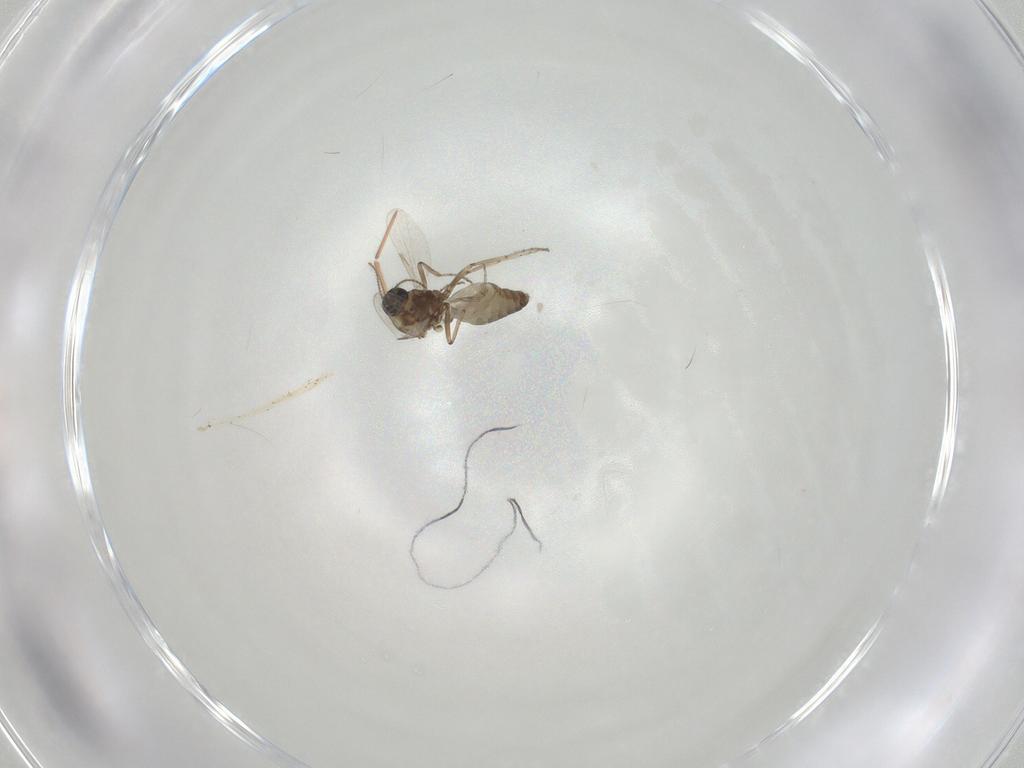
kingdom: Animalia
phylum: Arthropoda
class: Insecta
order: Diptera
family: Ceratopogonidae
